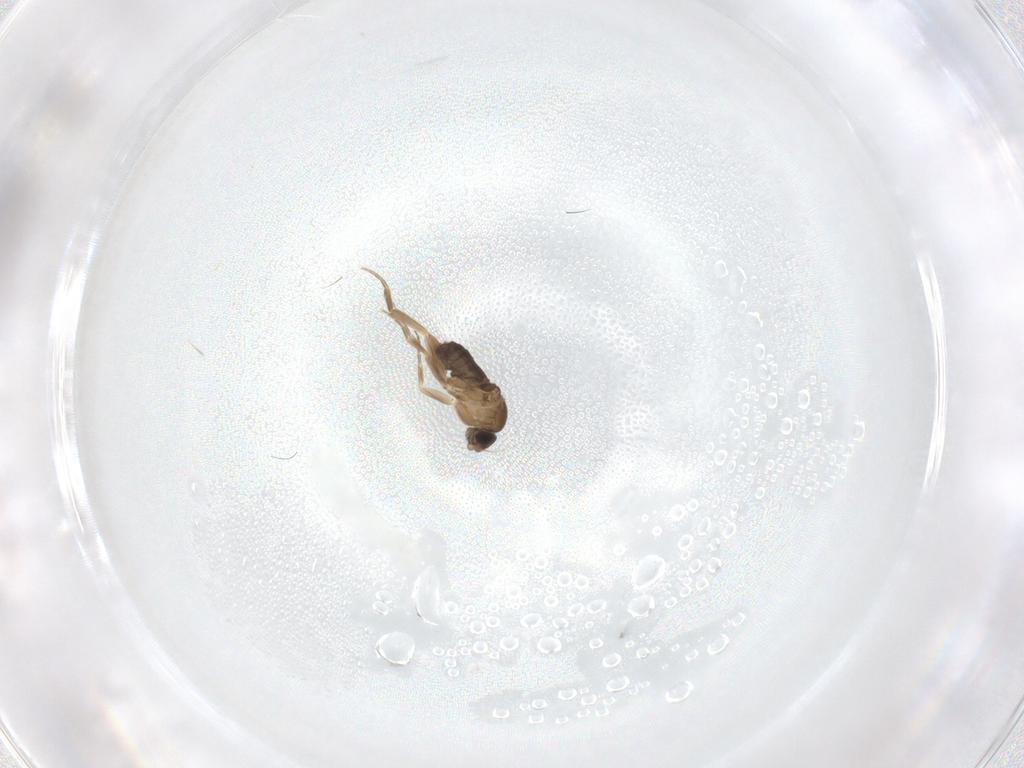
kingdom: Animalia
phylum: Arthropoda
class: Insecta
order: Diptera
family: Phoridae
